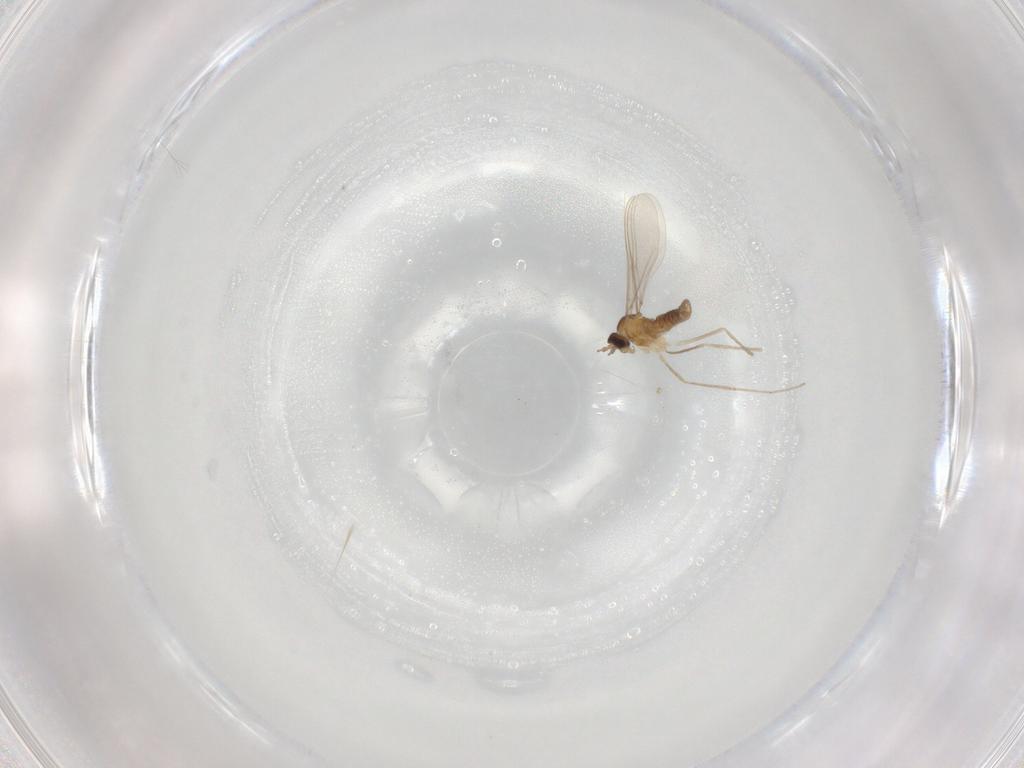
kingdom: Animalia
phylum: Arthropoda
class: Insecta
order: Diptera
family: Cecidomyiidae
